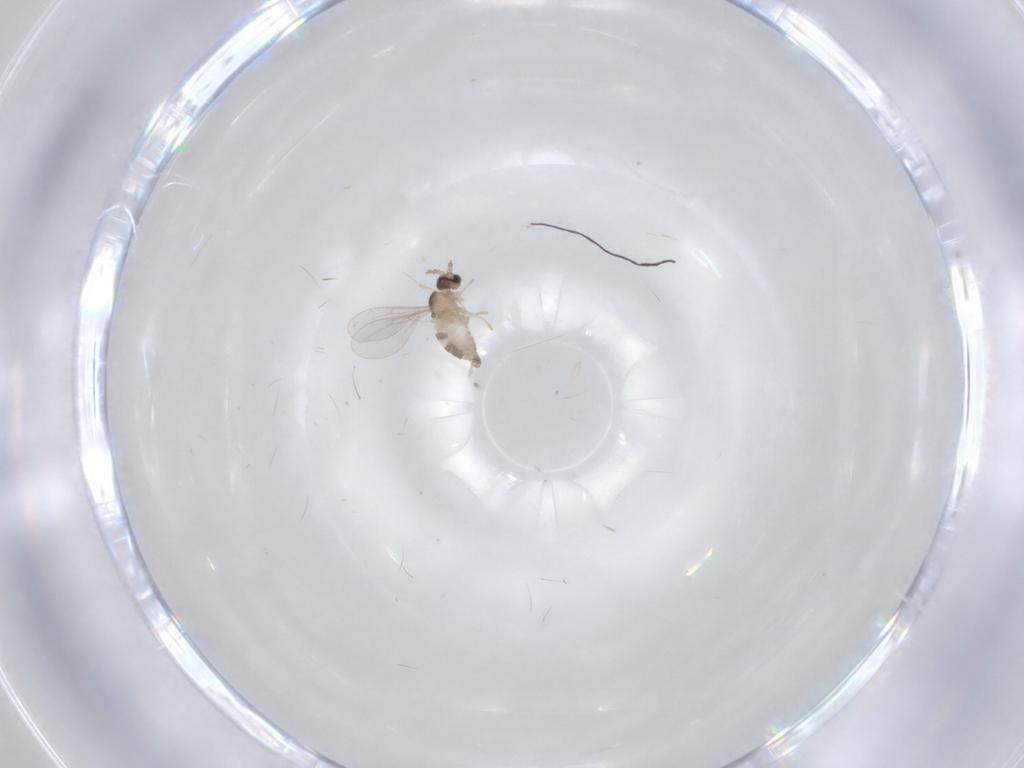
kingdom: Animalia
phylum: Arthropoda
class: Insecta
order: Diptera
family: Cecidomyiidae
